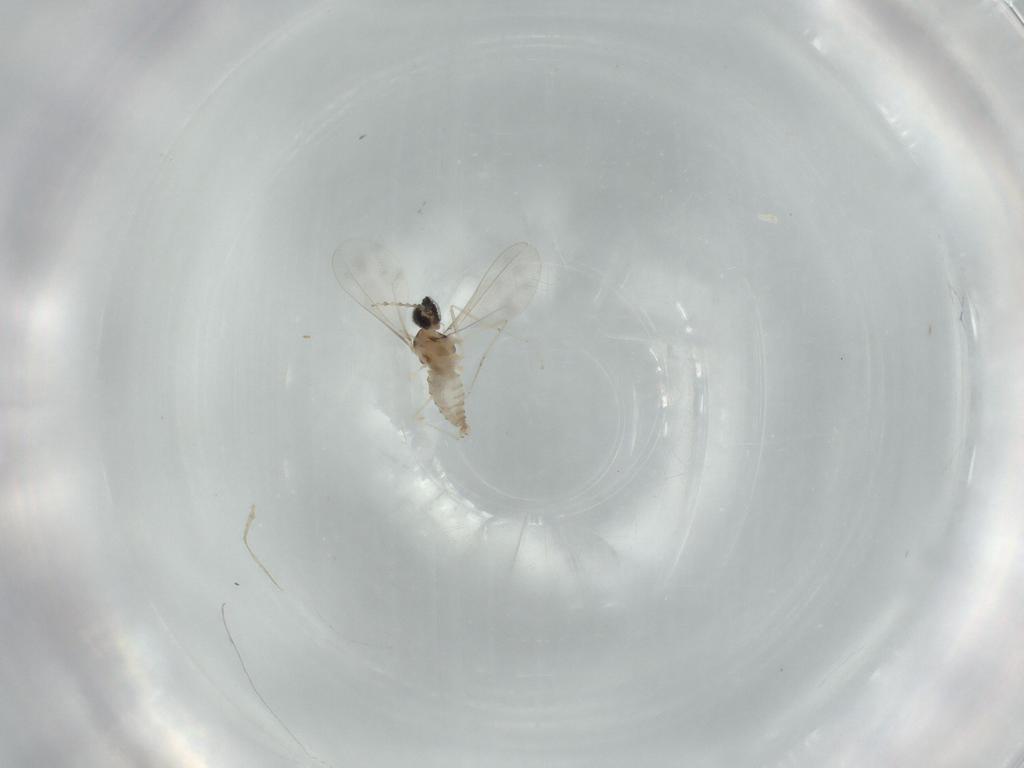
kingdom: Animalia
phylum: Arthropoda
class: Insecta
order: Diptera
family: Cecidomyiidae
